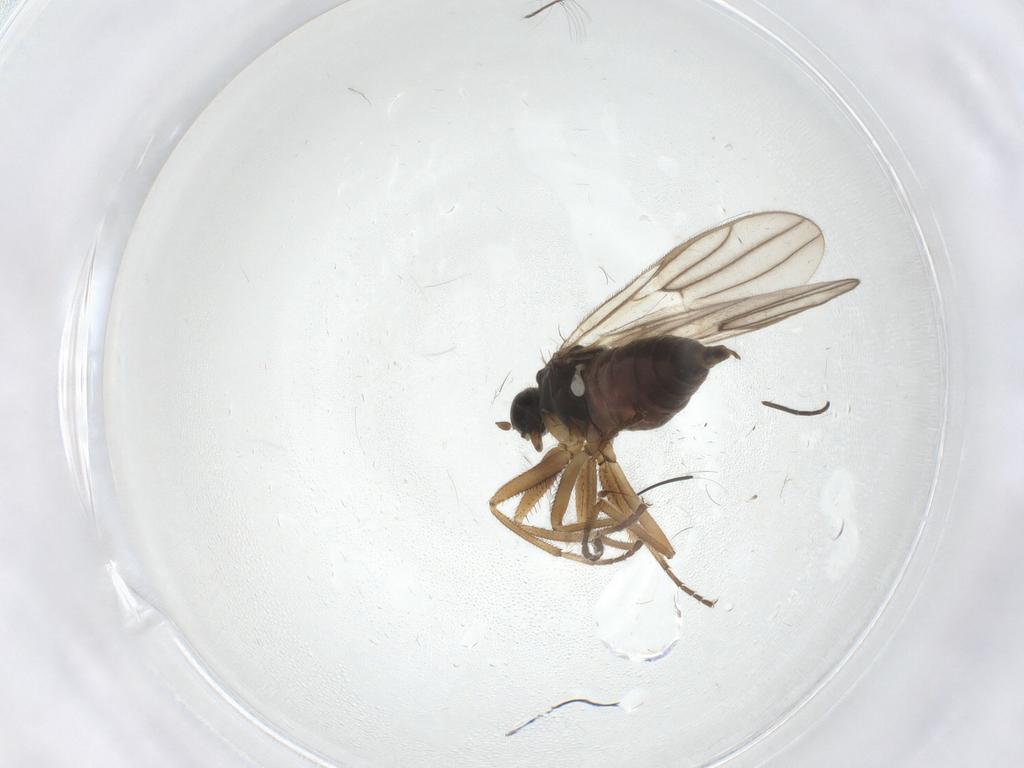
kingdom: Animalia
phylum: Arthropoda
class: Insecta
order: Diptera
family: Hybotidae
